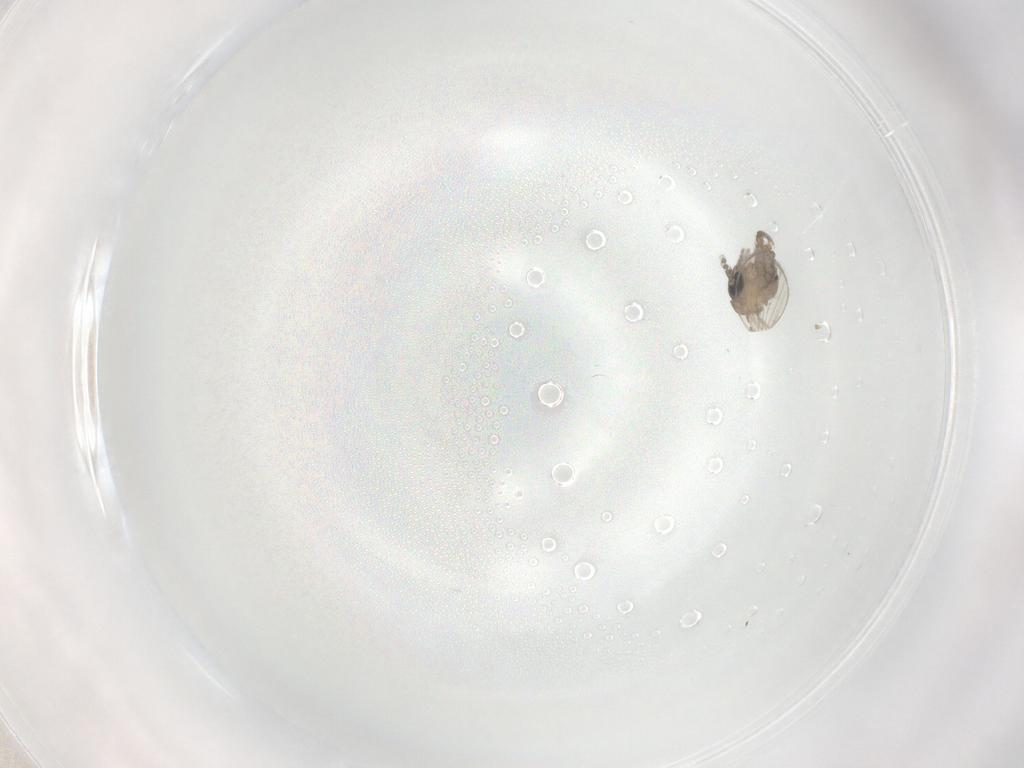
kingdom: Animalia
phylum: Arthropoda
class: Insecta
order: Diptera
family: Psychodidae
